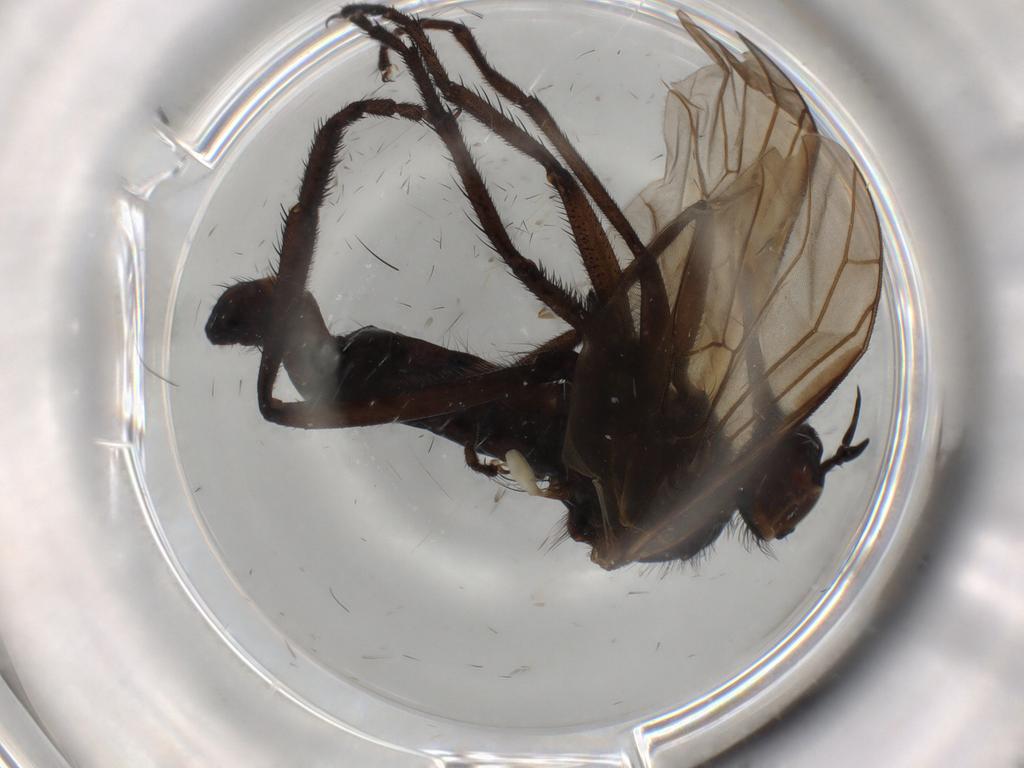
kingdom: Animalia
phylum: Arthropoda
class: Insecta
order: Diptera
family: Empididae
